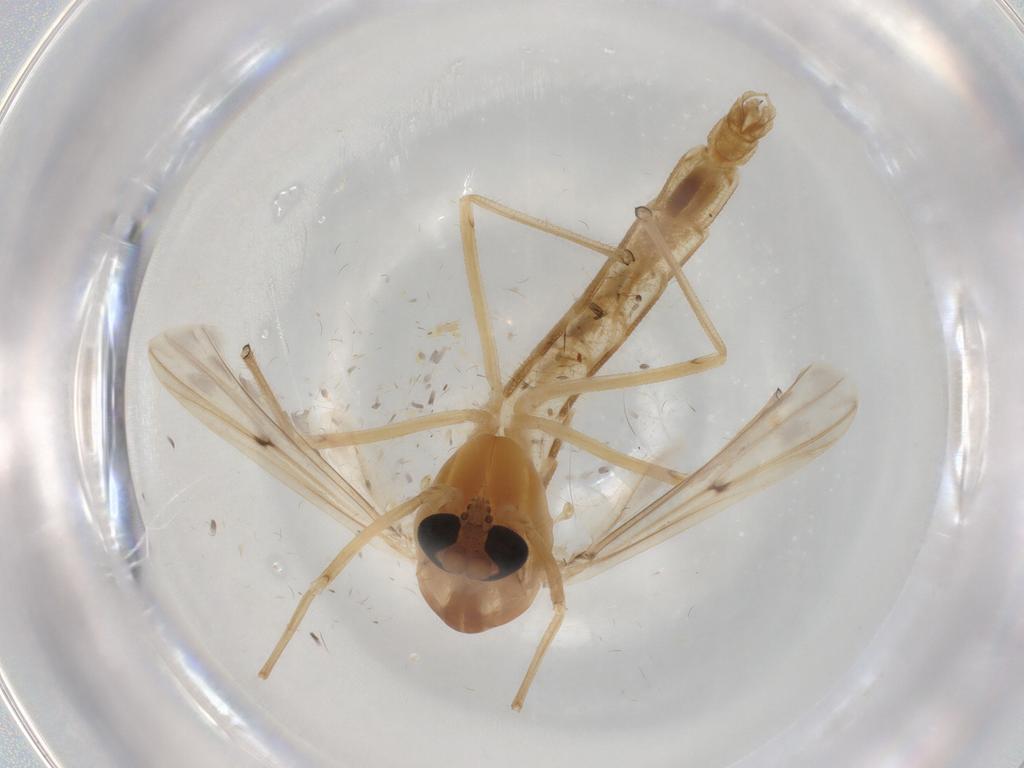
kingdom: Animalia
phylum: Arthropoda
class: Insecta
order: Diptera
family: Chironomidae
